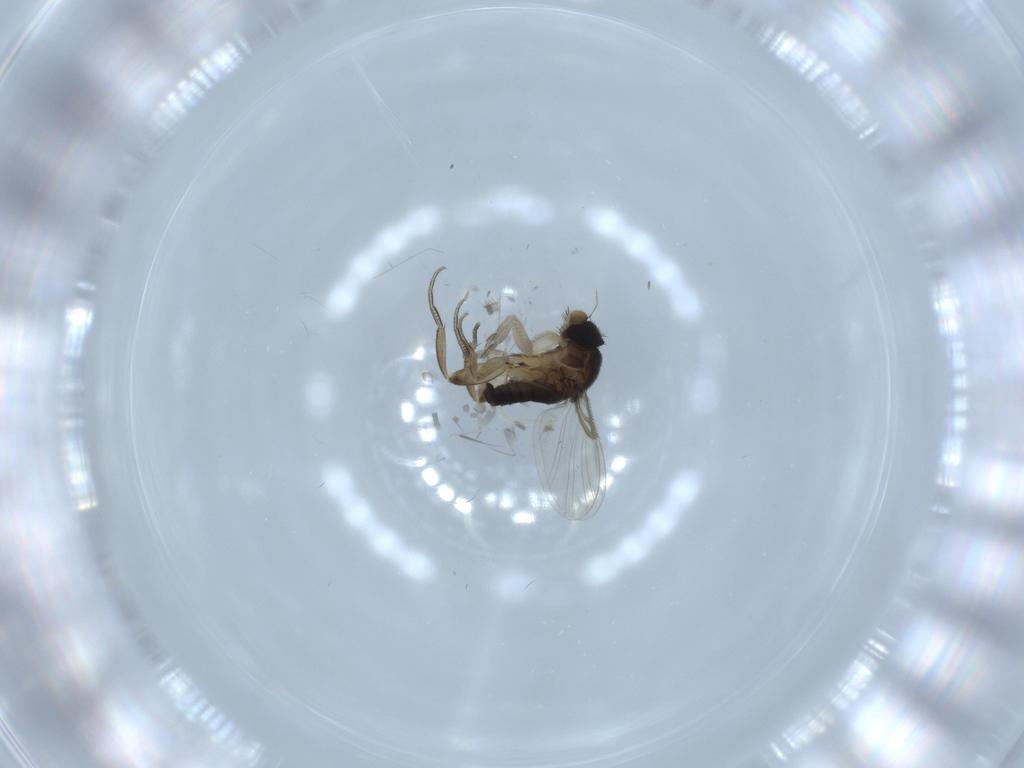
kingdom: Animalia
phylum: Arthropoda
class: Insecta
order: Diptera
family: Phoridae
